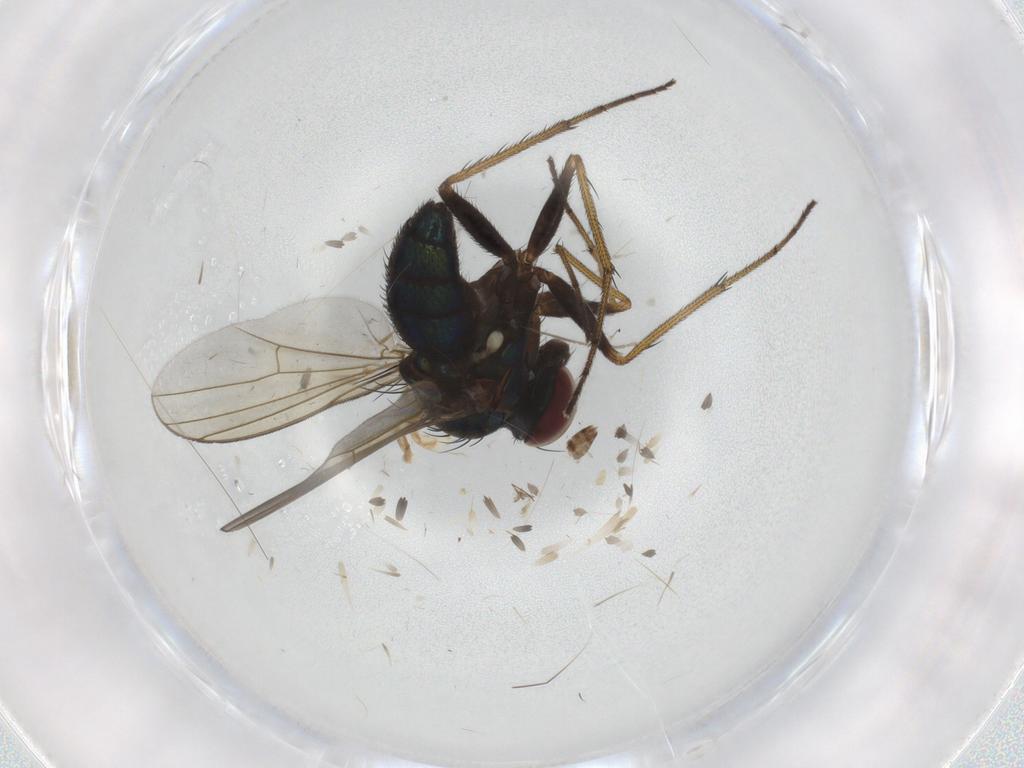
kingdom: Animalia
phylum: Arthropoda
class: Insecta
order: Diptera
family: Dolichopodidae
